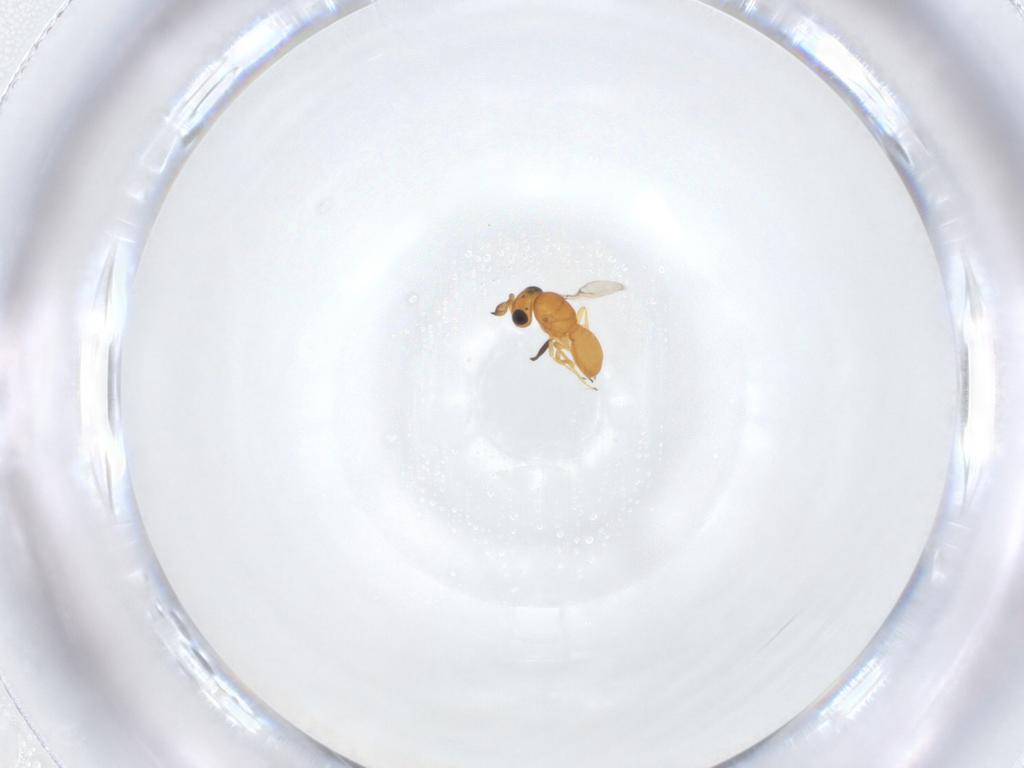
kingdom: Animalia
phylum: Arthropoda
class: Insecta
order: Hymenoptera
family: Scelionidae
